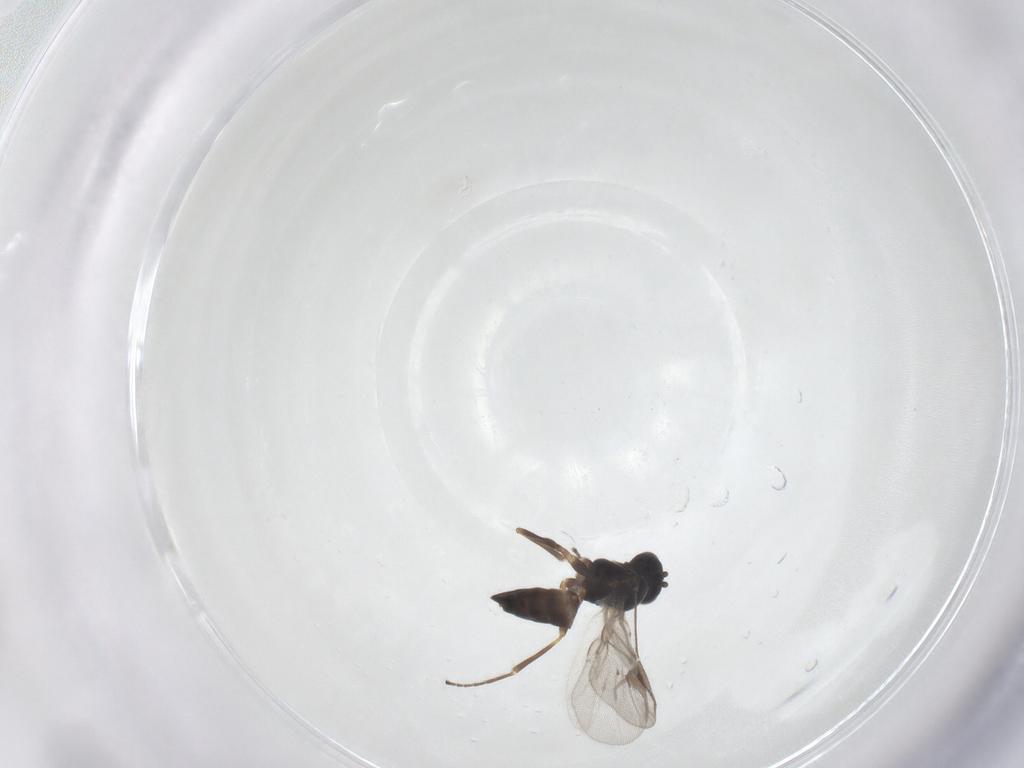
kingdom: Animalia
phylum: Arthropoda
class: Insecta
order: Hymenoptera
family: Braconidae
